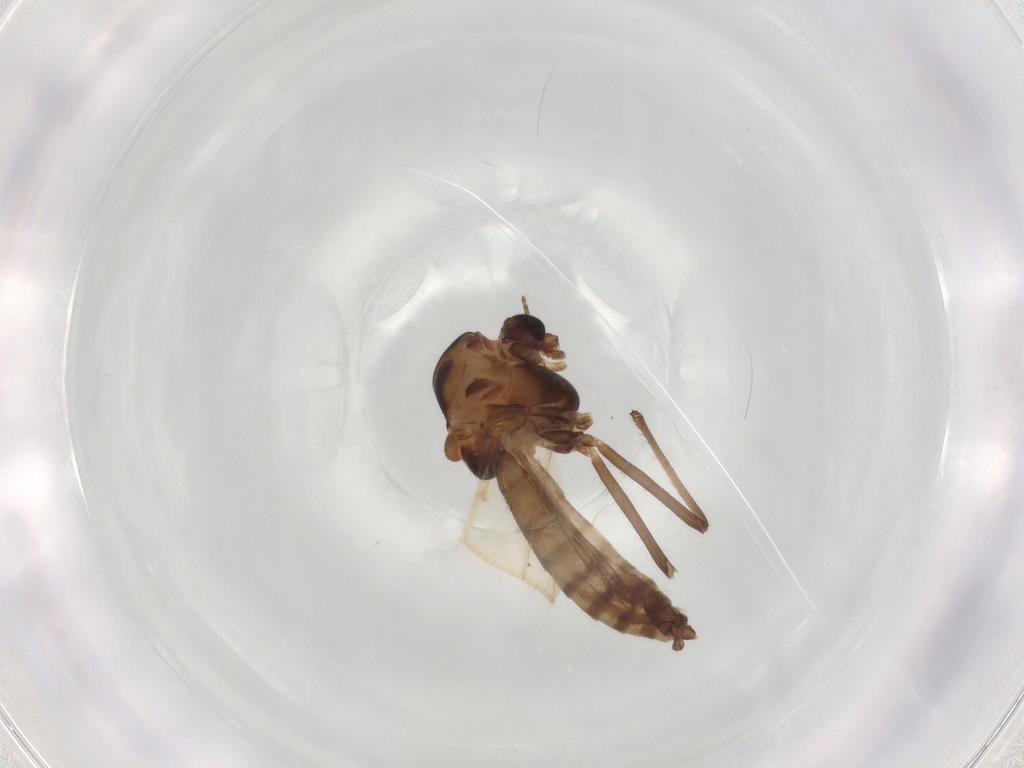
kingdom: Animalia
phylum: Arthropoda
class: Insecta
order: Diptera
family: Chironomidae
